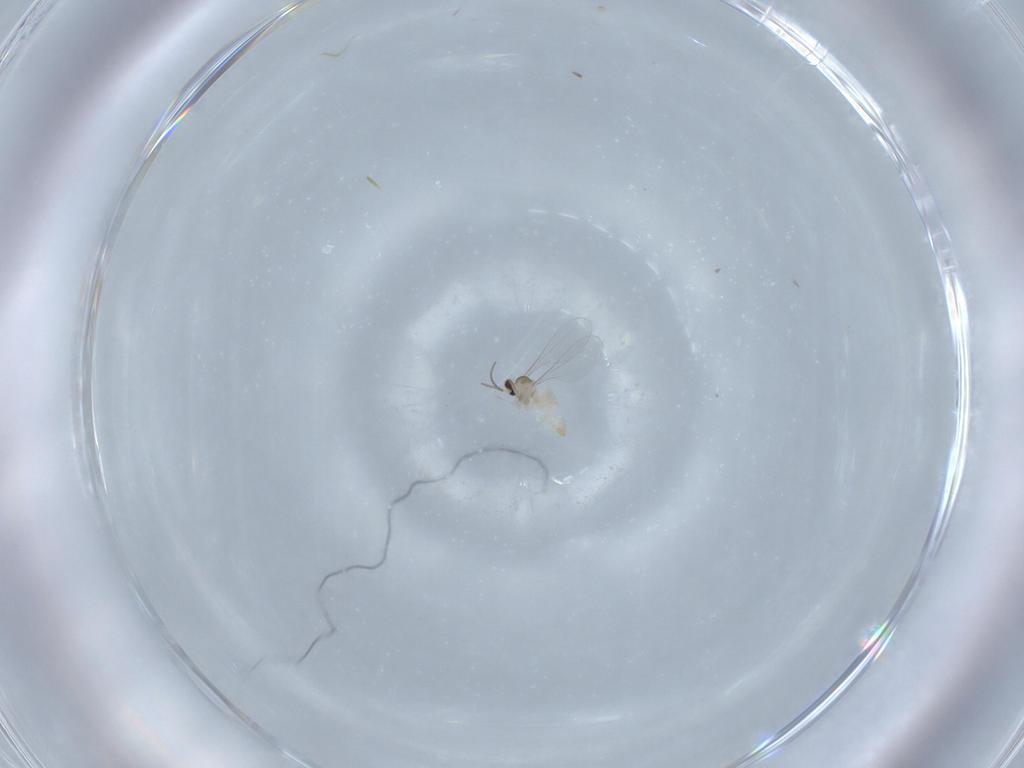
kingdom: Animalia
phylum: Arthropoda
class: Insecta
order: Diptera
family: Cecidomyiidae
